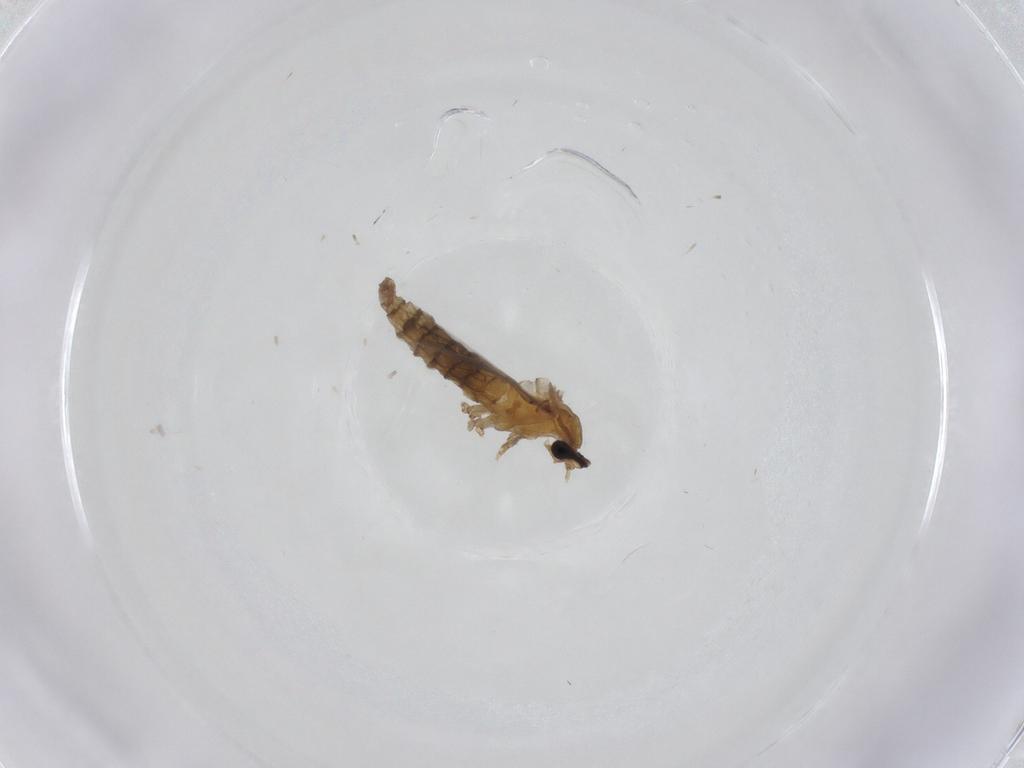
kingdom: Animalia
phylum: Arthropoda
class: Insecta
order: Diptera
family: Cecidomyiidae
